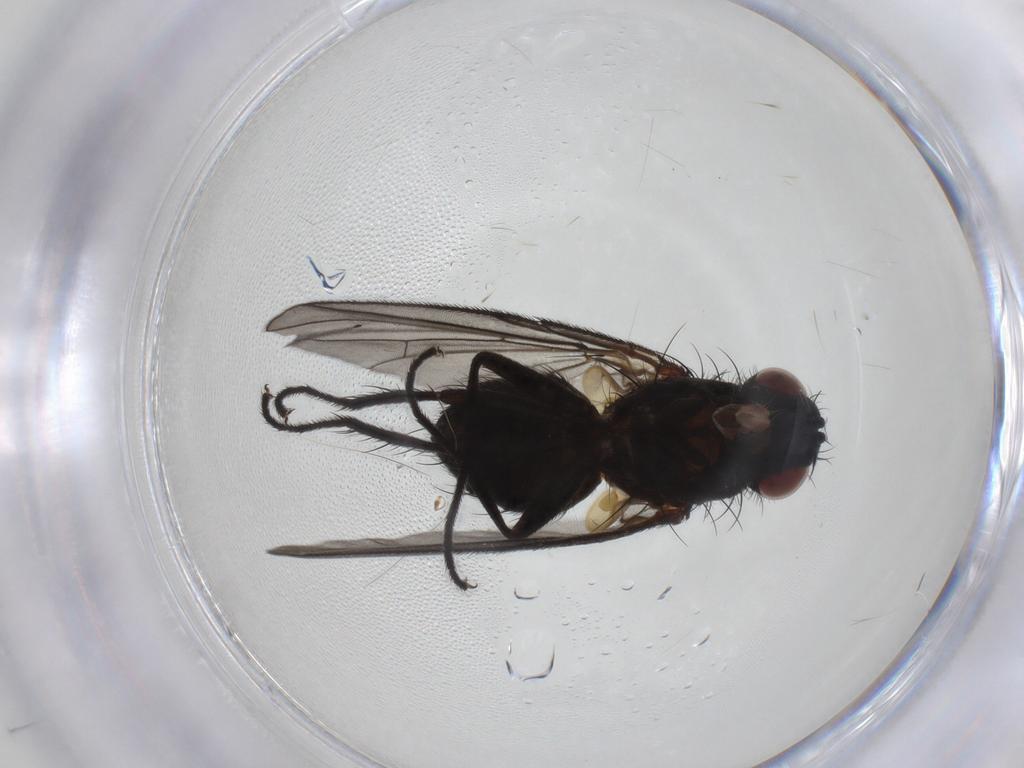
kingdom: Animalia
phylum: Arthropoda
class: Insecta
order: Diptera
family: Tachinidae
